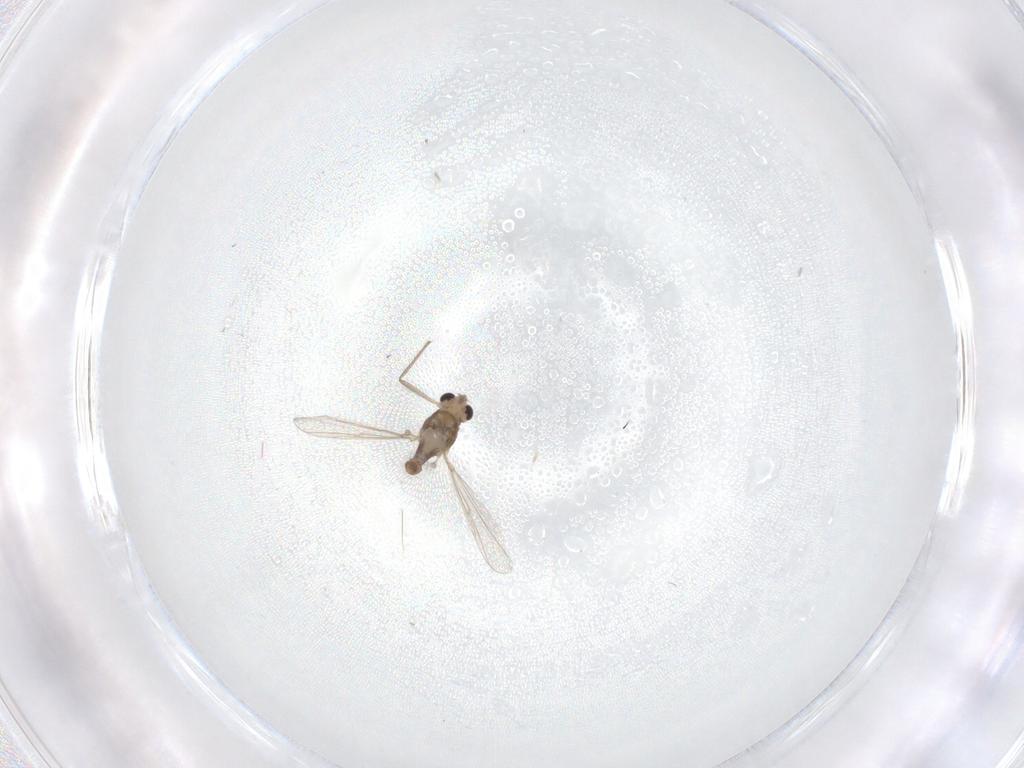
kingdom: Animalia
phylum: Arthropoda
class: Insecta
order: Diptera
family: Chironomidae
